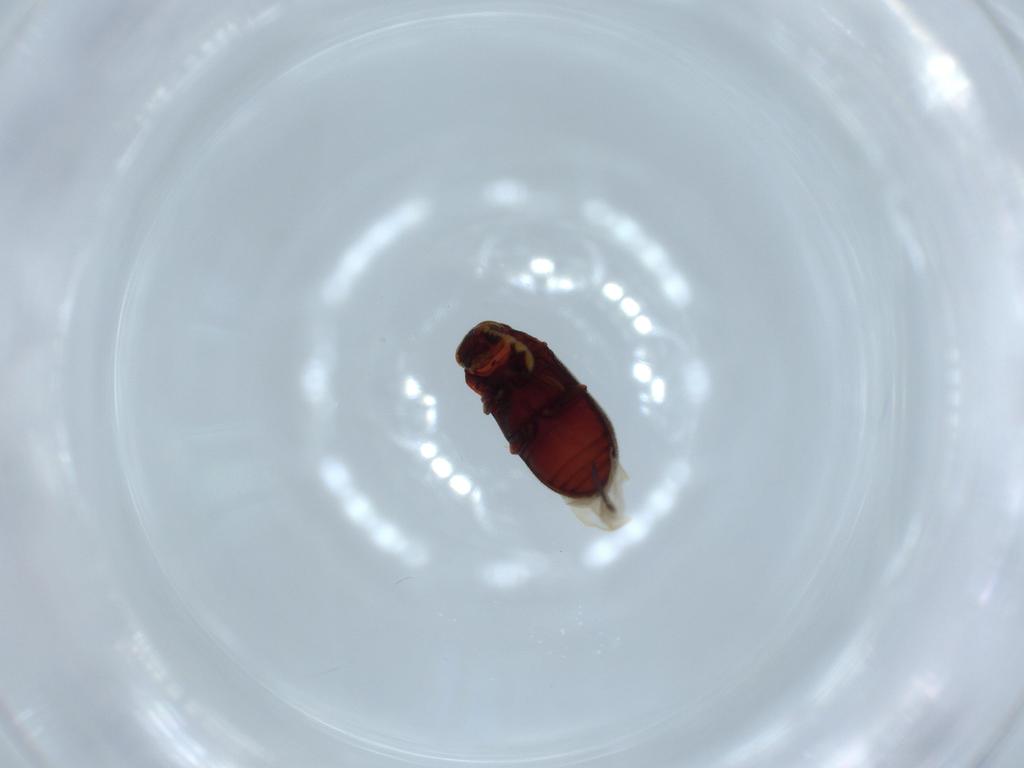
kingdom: Animalia
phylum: Arthropoda
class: Insecta
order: Coleoptera
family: Anobiidae
